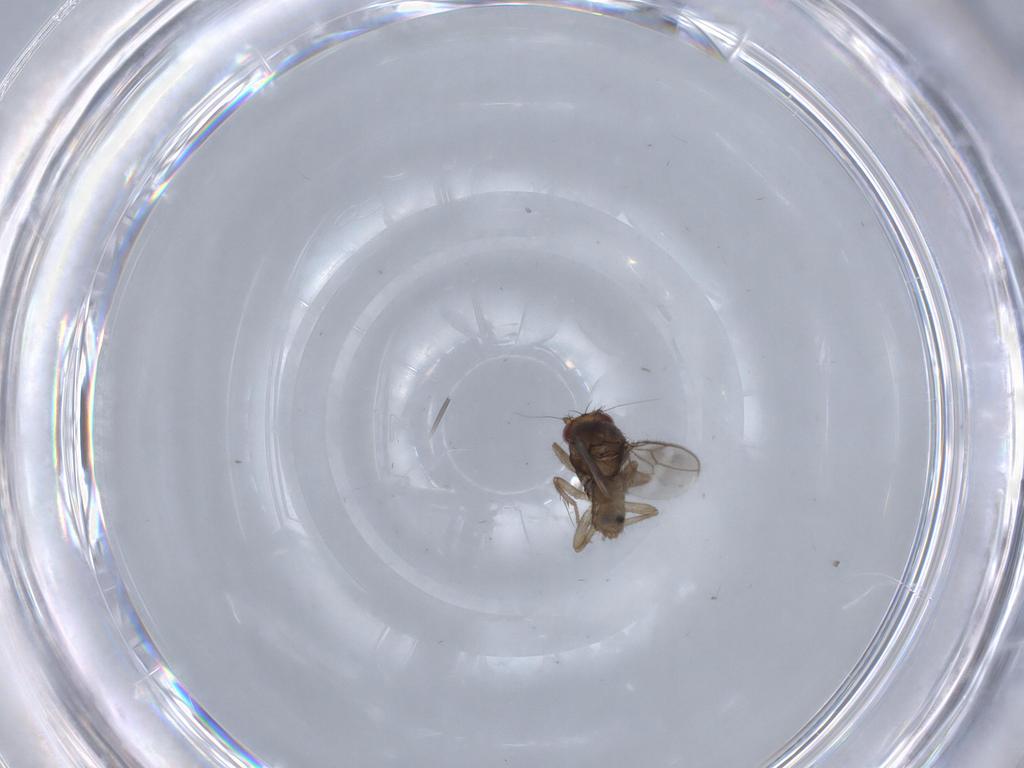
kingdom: Animalia
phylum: Arthropoda
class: Insecta
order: Diptera
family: Sphaeroceridae
